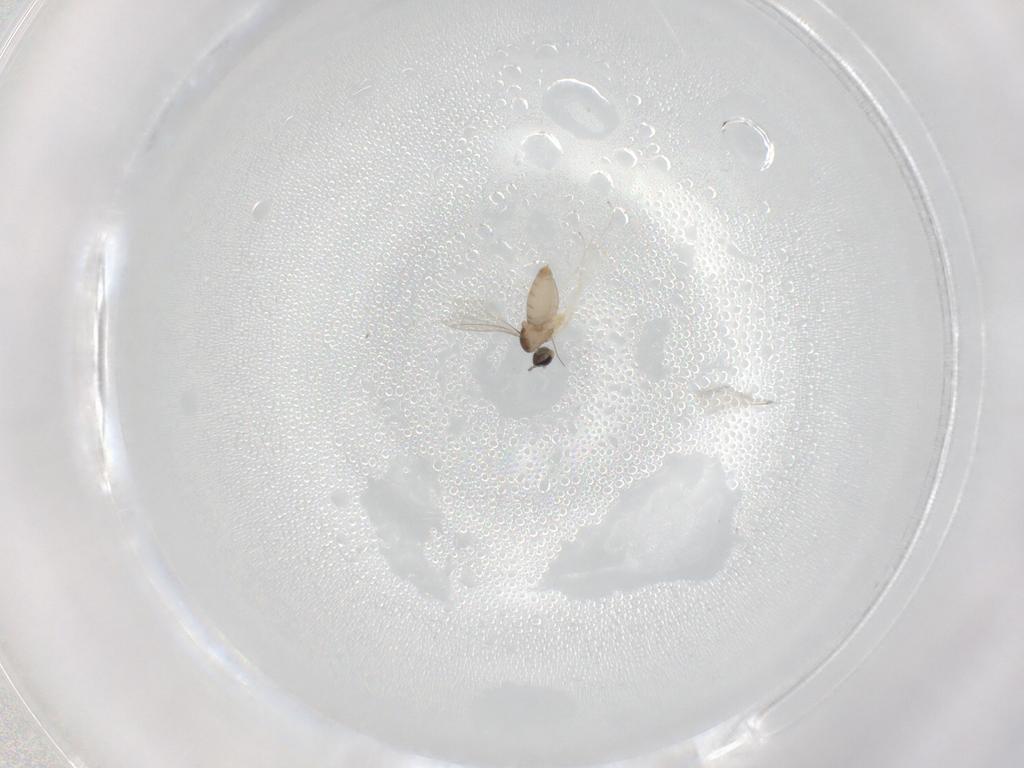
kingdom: Animalia
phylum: Arthropoda
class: Insecta
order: Diptera
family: Cecidomyiidae
